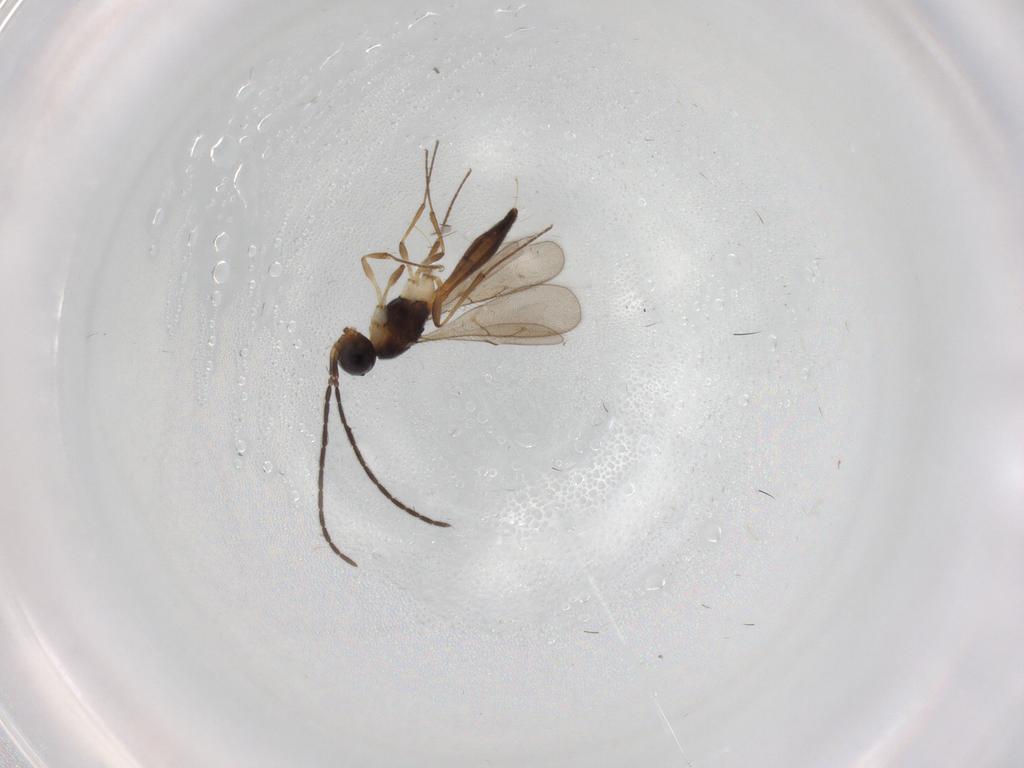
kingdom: Animalia
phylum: Arthropoda
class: Insecta
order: Hymenoptera
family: Scelionidae
